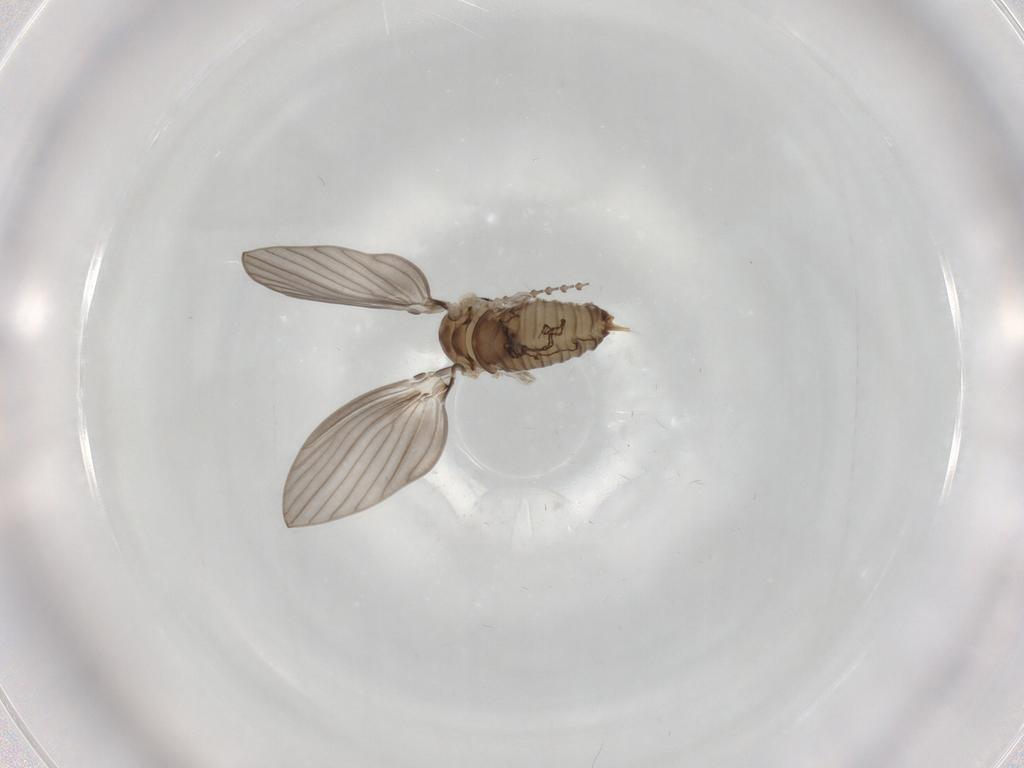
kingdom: Animalia
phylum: Arthropoda
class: Insecta
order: Diptera
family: Psychodidae
